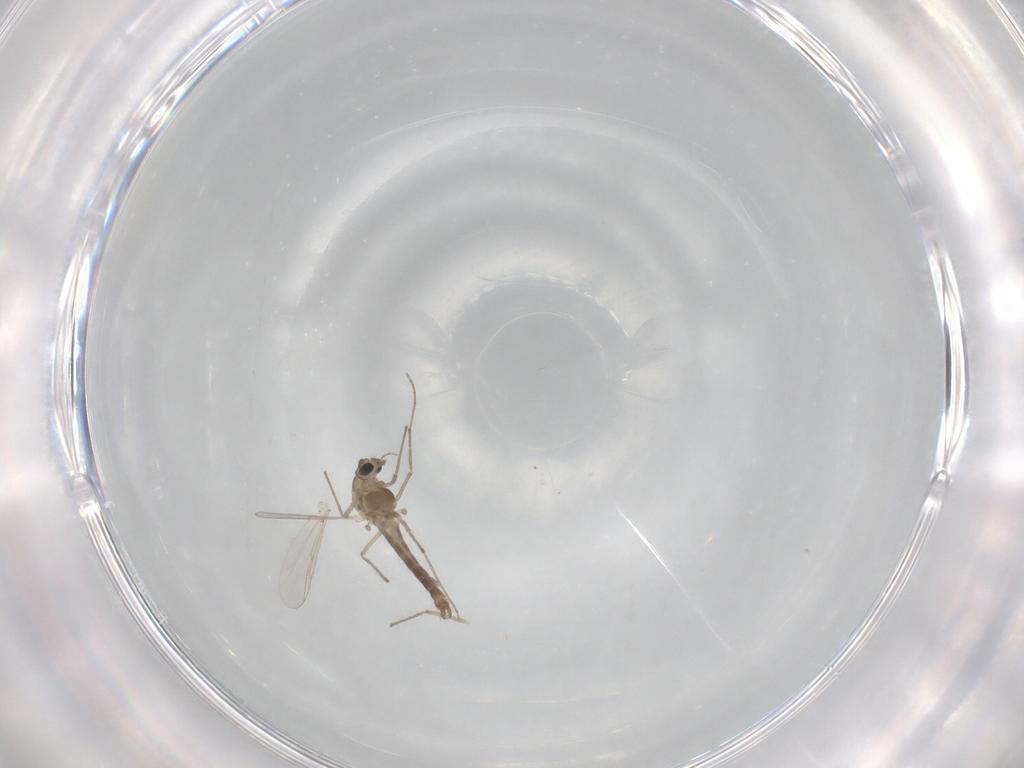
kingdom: Animalia
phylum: Arthropoda
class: Insecta
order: Diptera
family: Chironomidae
